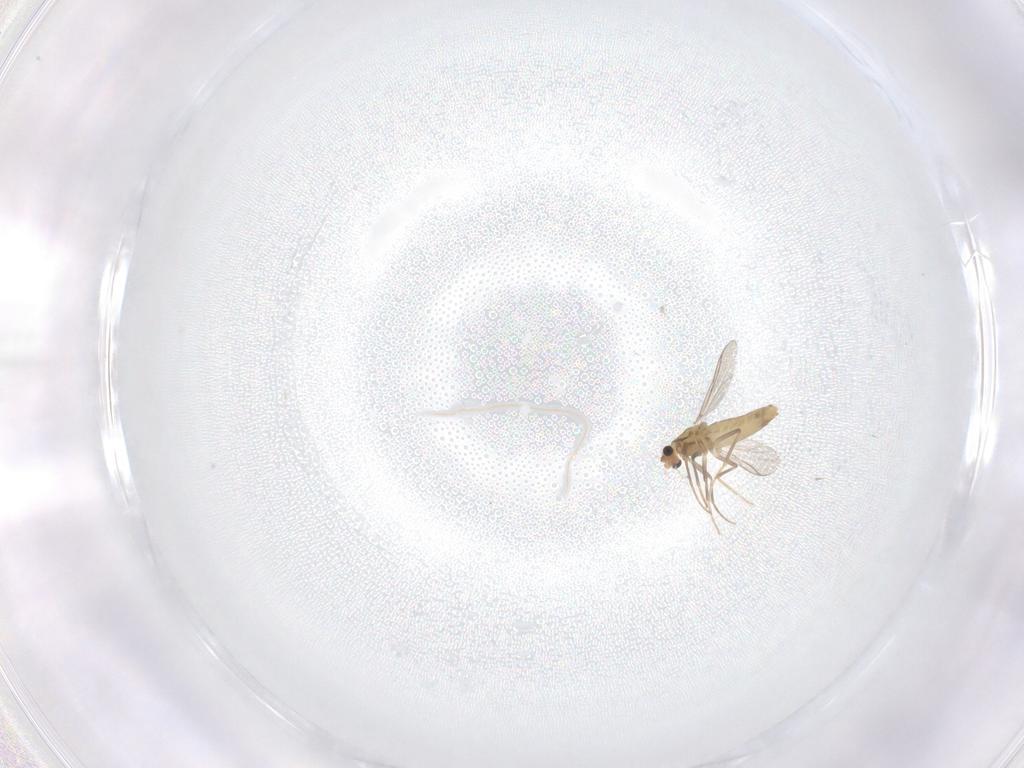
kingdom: Animalia
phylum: Arthropoda
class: Insecta
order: Diptera
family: Chironomidae
